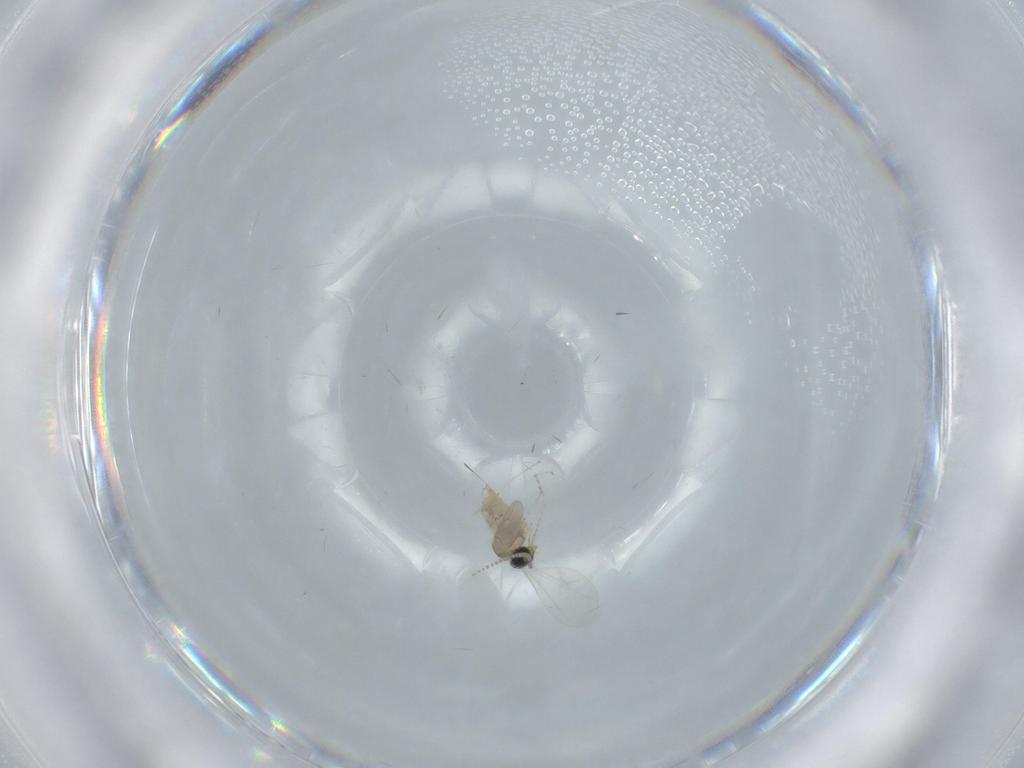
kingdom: Animalia
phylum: Arthropoda
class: Insecta
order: Diptera
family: Cecidomyiidae
